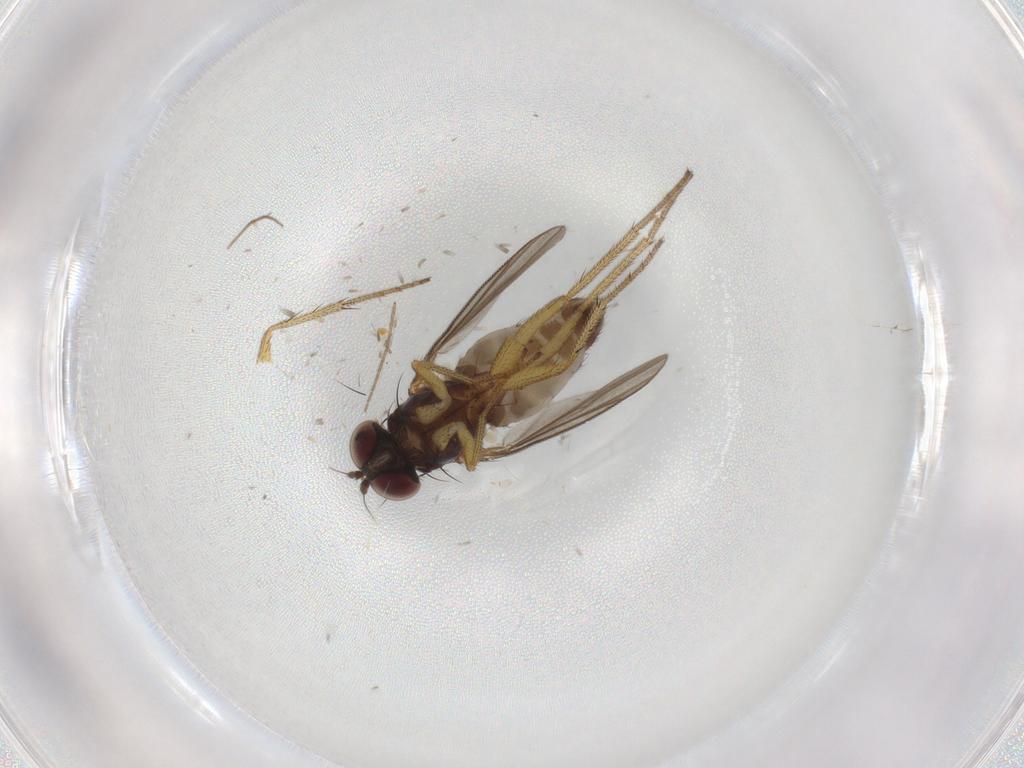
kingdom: Animalia
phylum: Arthropoda
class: Insecta
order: Diptera
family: Dolichopodidae
